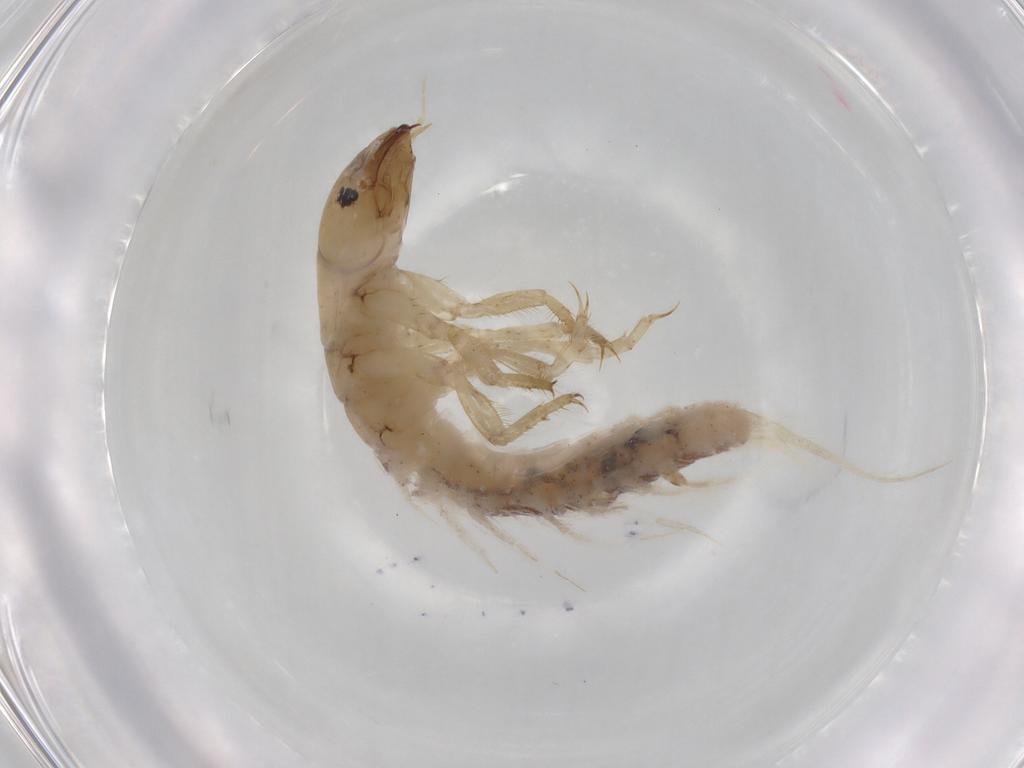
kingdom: Animalia
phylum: Arthropoda
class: Insecta
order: Megaloptera
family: Sialidae
